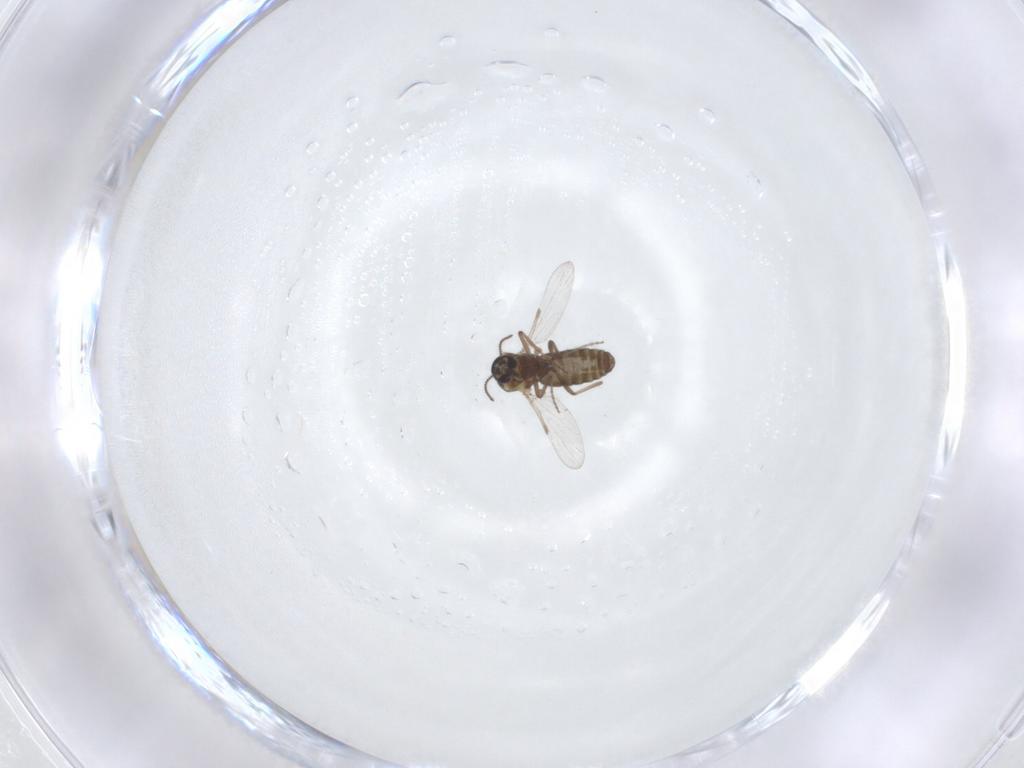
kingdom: Animalia
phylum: Arthropoda
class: Insecta
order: Diptera
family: Ceratopogonidae
